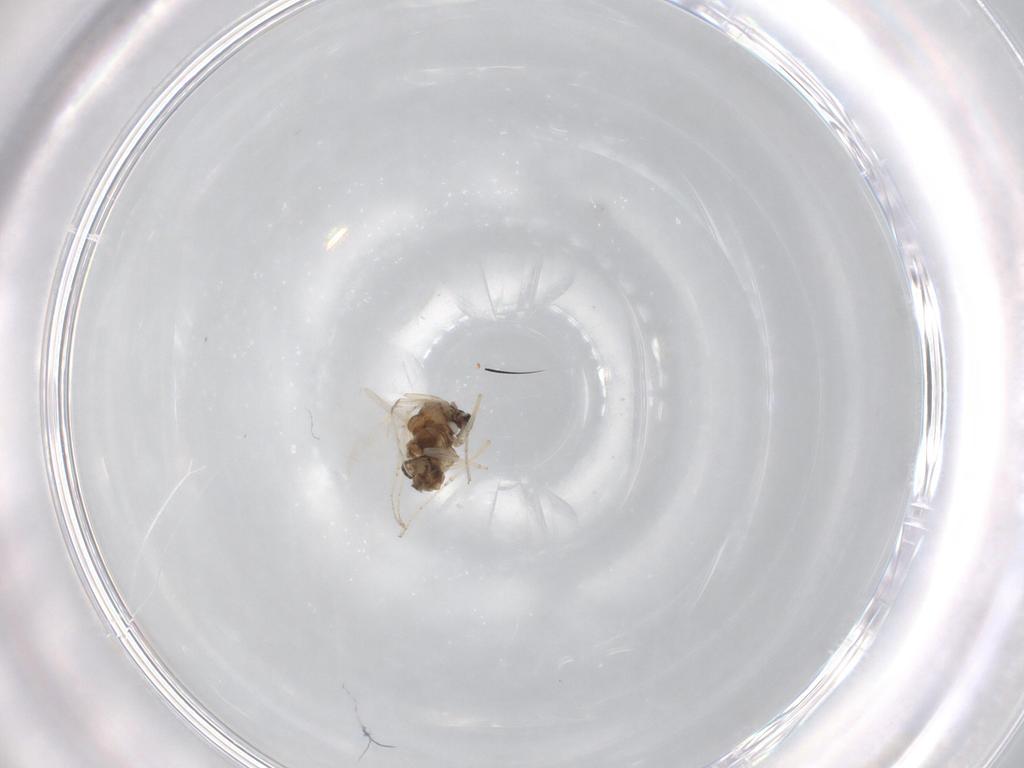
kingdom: Animalia
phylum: Arthropoda
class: Insecta
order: Diptera
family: Cecidomyiidae
